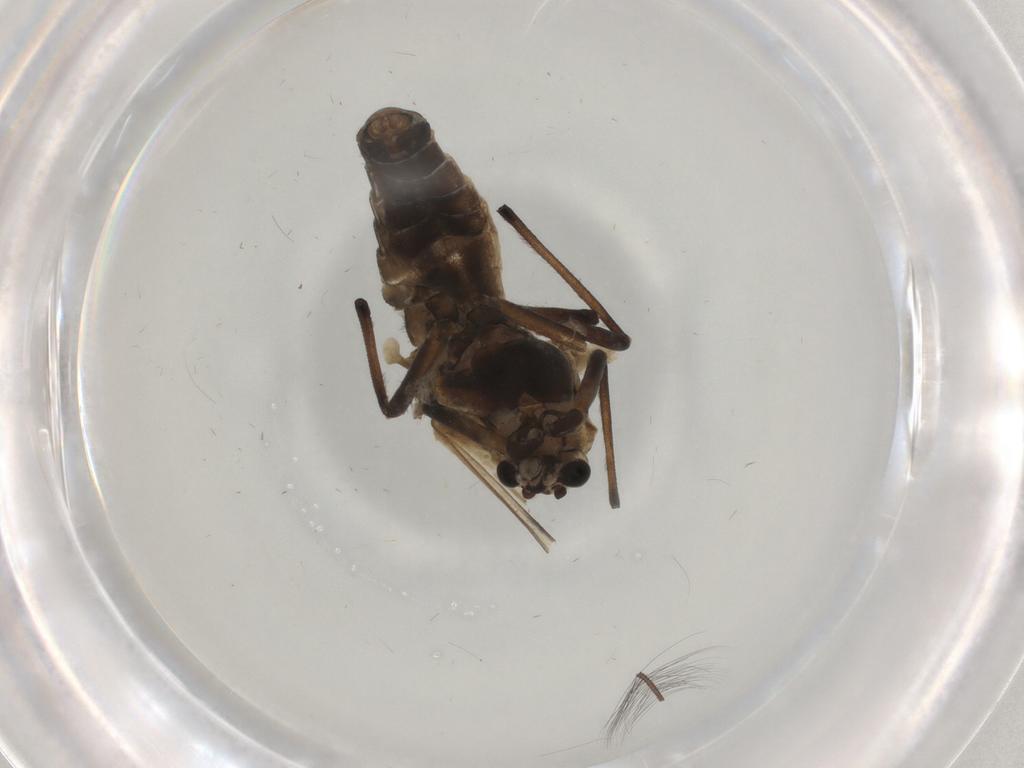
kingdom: Animalia
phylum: Arthropoda
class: Insecta
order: Diptera
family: Chironomidae
